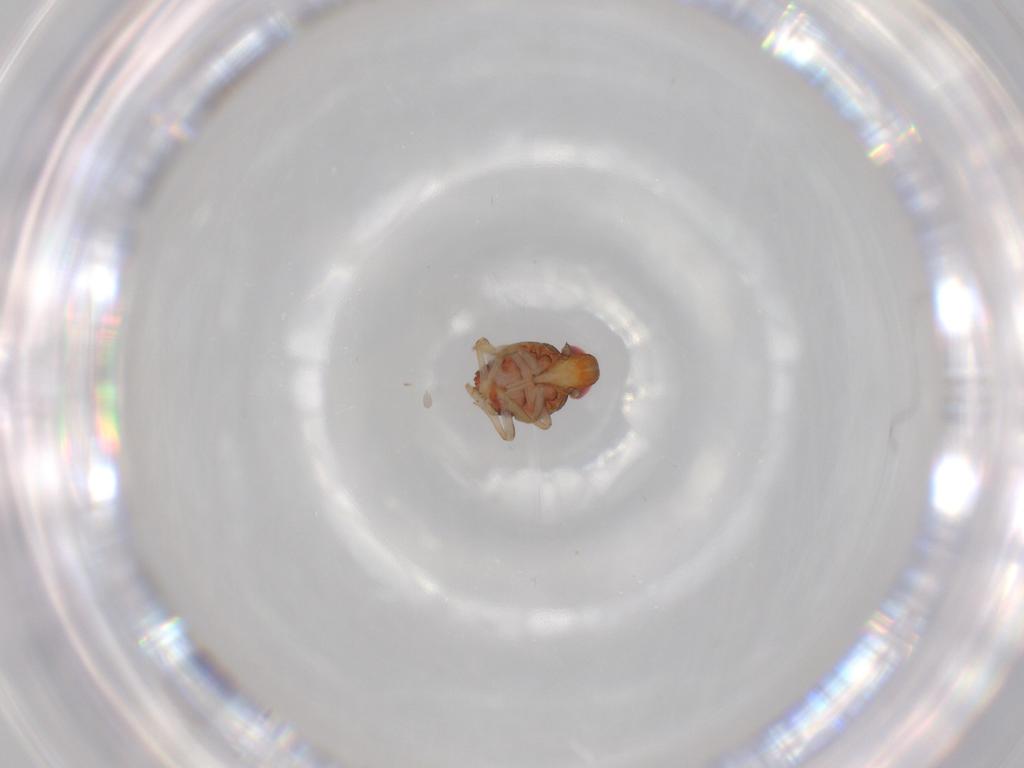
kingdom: Animalia
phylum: Arthropoda
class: Insecta
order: Hemiptera
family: Issidae
